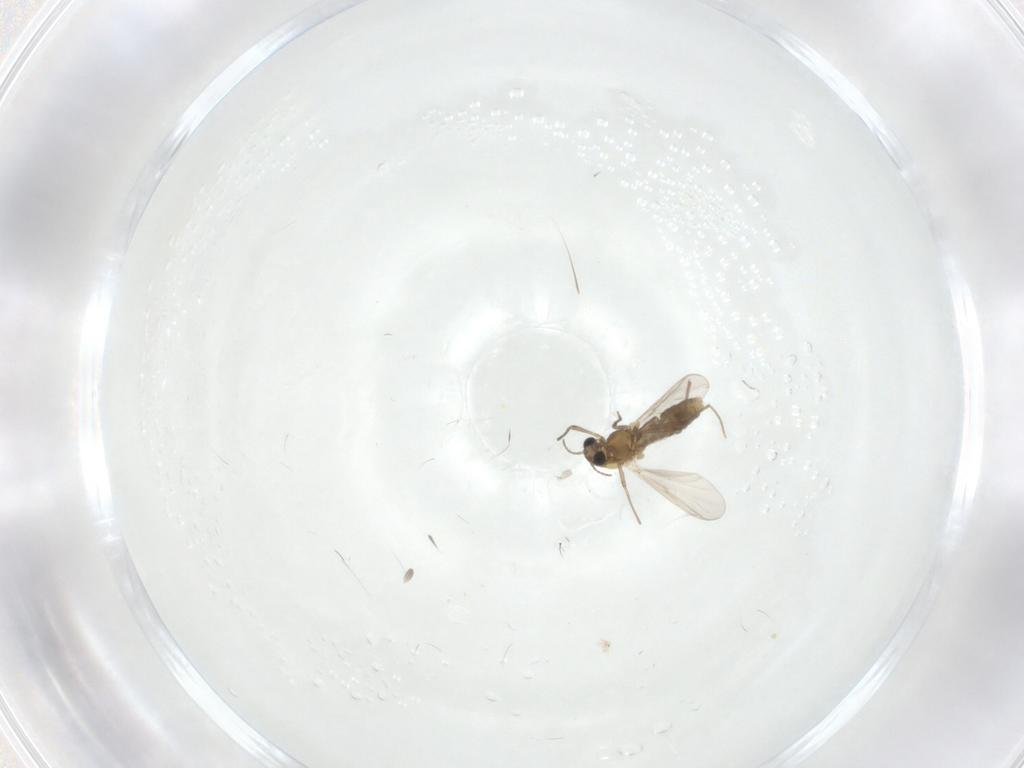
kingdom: Animalia
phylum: Arthropoda
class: Insecta
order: Diptera
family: Chironomidae
